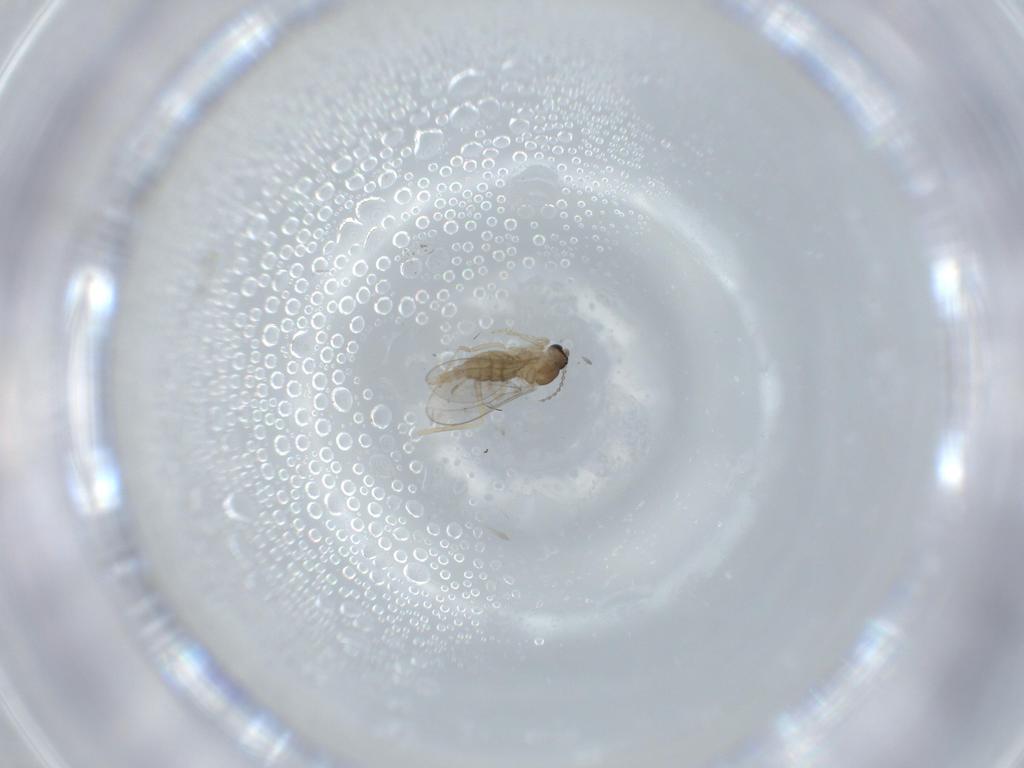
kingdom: Animalia
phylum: Arthropoda
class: Insecta
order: Diptera
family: Cecidomyiidae
